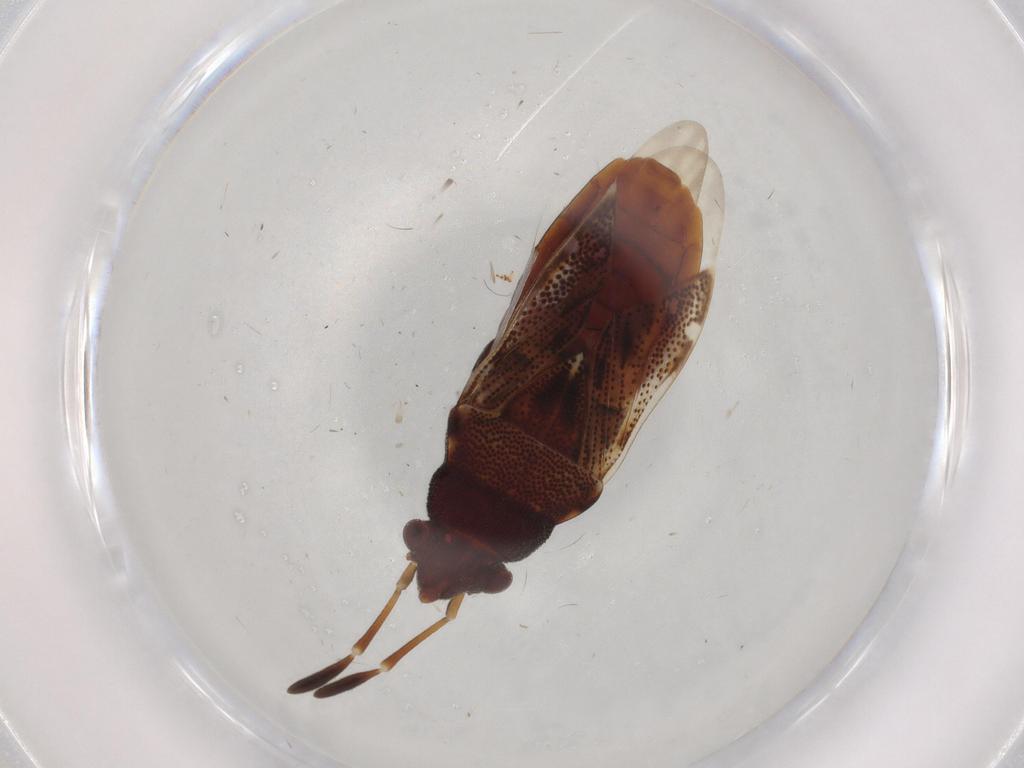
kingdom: Animalia
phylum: Arthropoda
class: Insecta
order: Hemiptera
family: Rhyparochromidae
